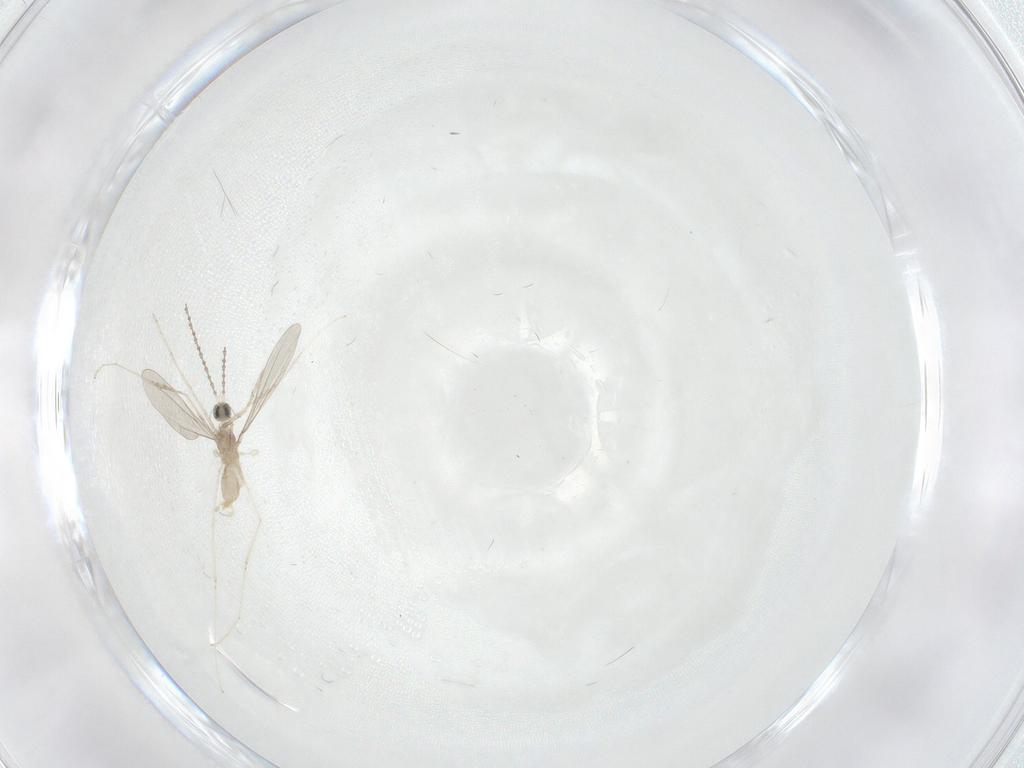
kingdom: Animalia
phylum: Arthropoda
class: Insecta
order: Diptera
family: Cecidomyiidae
